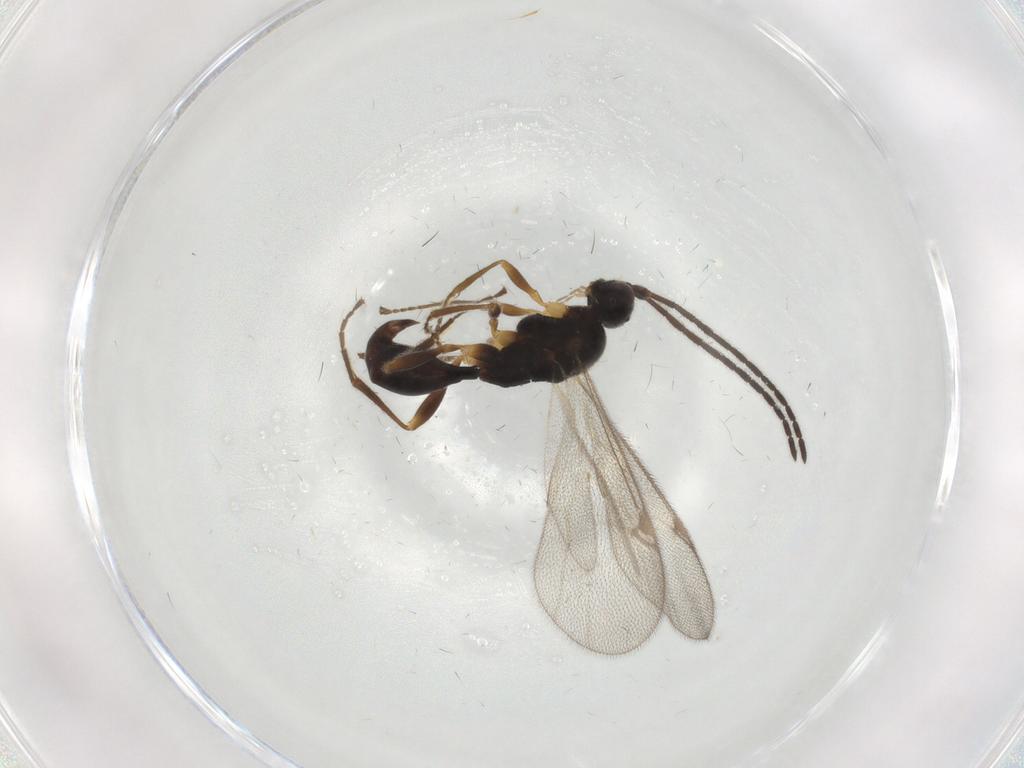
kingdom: Animalia
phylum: Arthropoda
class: Insecta
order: Hymenoptera
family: Proctotrupidae
